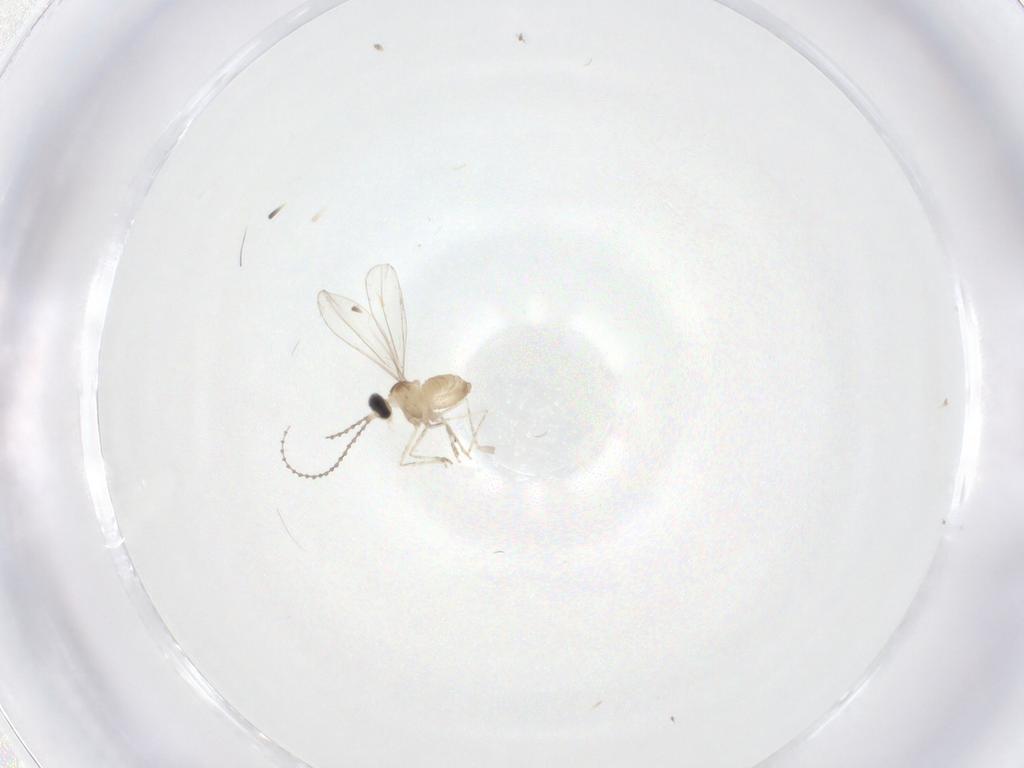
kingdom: Animalia
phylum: Arthropoda
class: Insecta
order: Diptera
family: Cecidomyiidae
